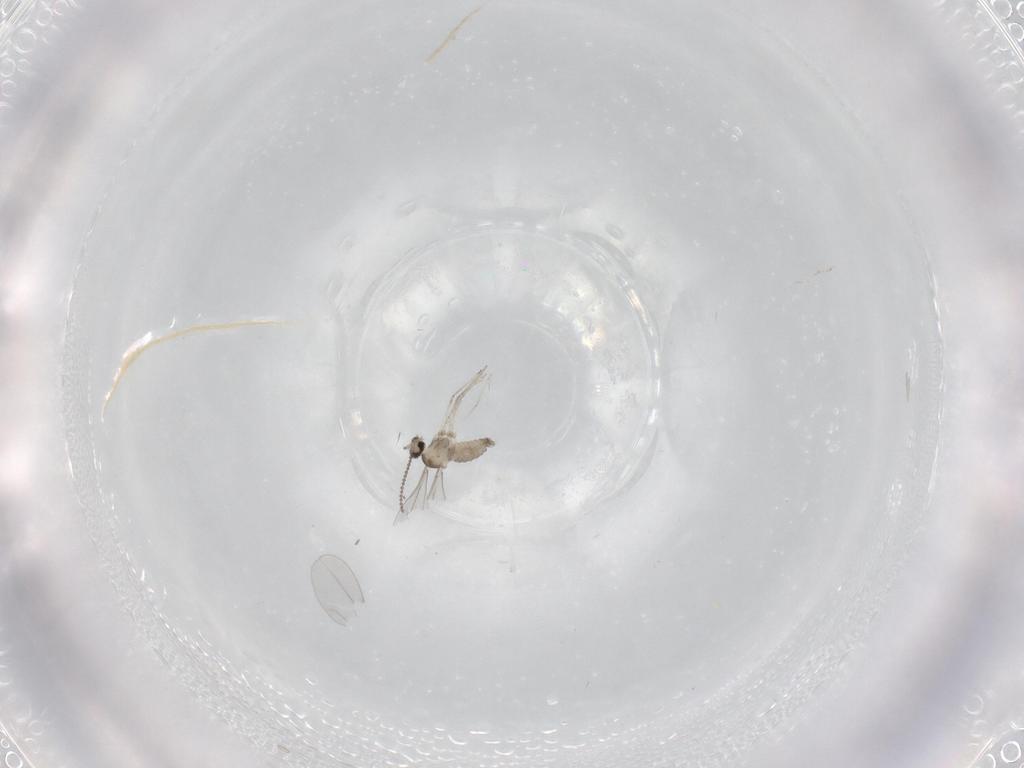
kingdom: Animalia
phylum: Arthropoda
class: Insecta
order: Diptera
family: Cecidomyiidae
